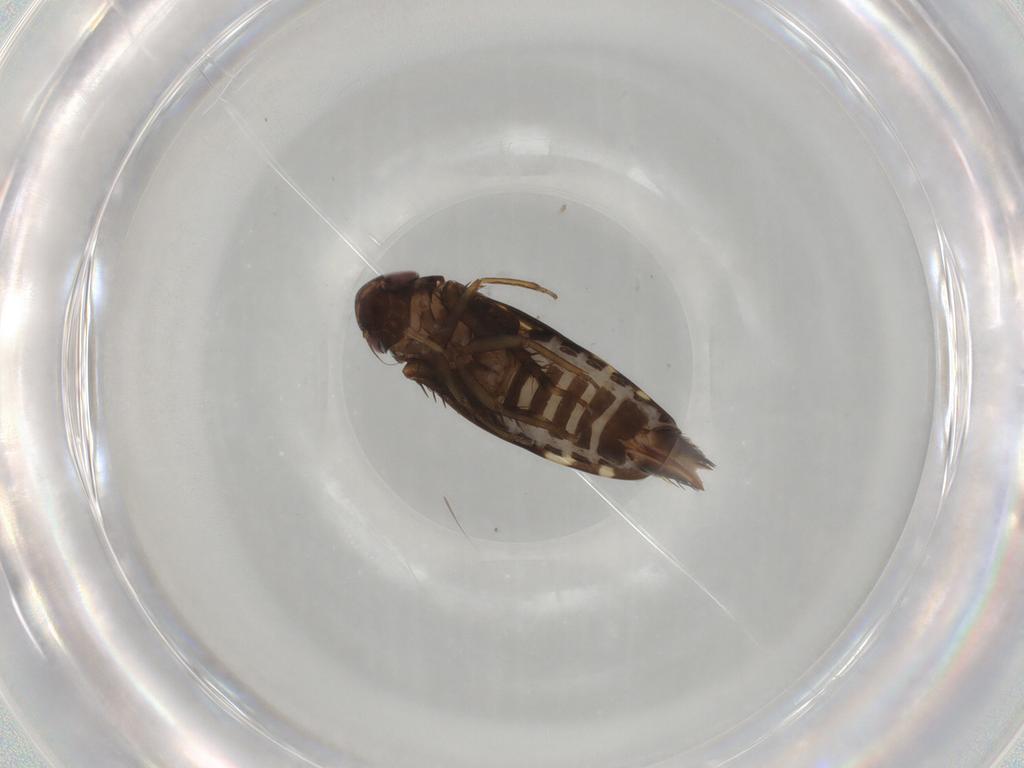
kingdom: Animalia
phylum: Arthropoda
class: Insecta
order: Hemiptera
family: Cicadellidae
